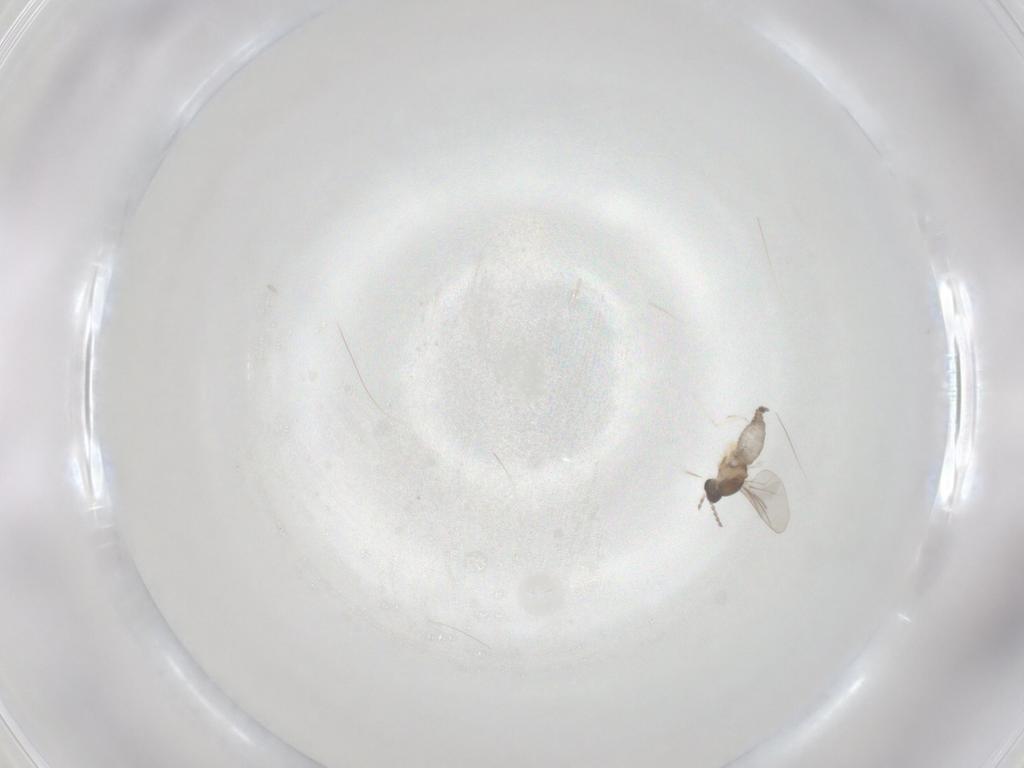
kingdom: Animalia
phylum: Arthropoda
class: Insecta
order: Diptera
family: Cecidomyiidae
